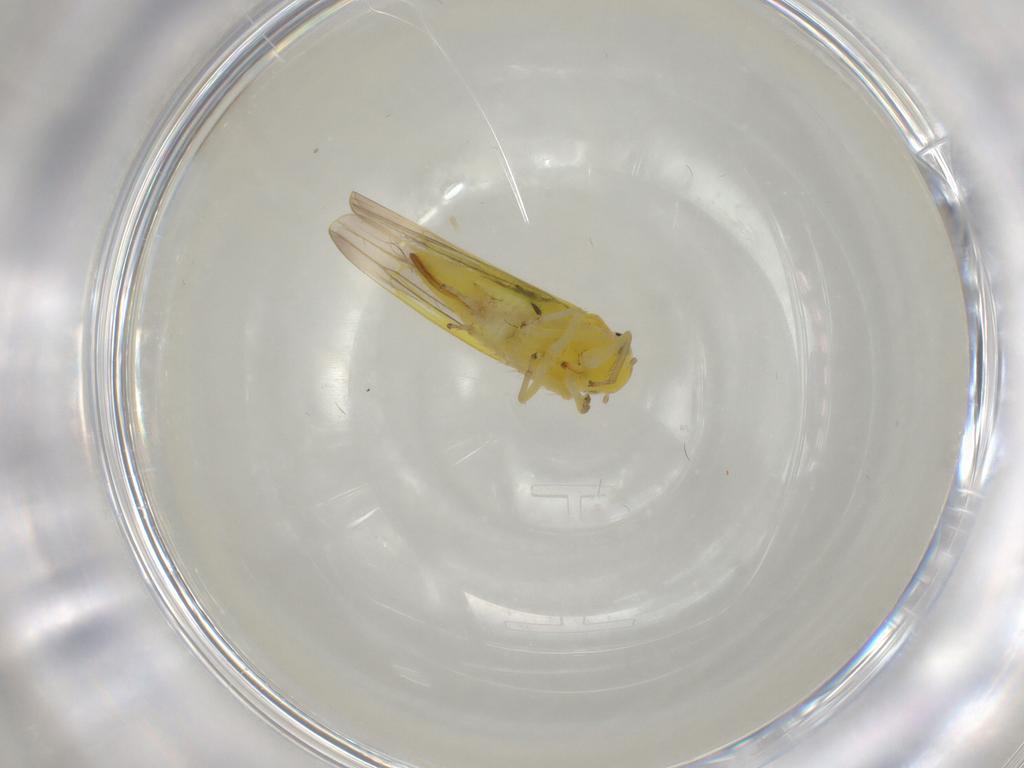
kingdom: Animalia
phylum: Arthropoda
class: Insecta
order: Hemiptera
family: Cicadellidae
